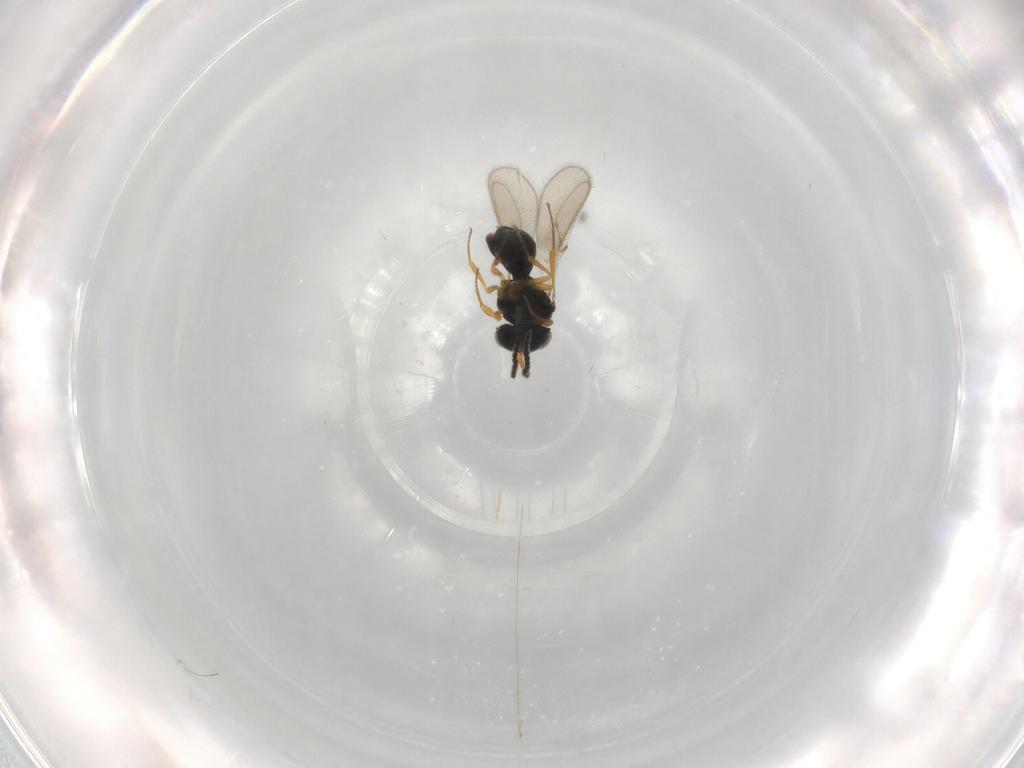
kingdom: Animalia
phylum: Arthropoda
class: Insecta
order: Hymenoptera
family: Scelionidae
